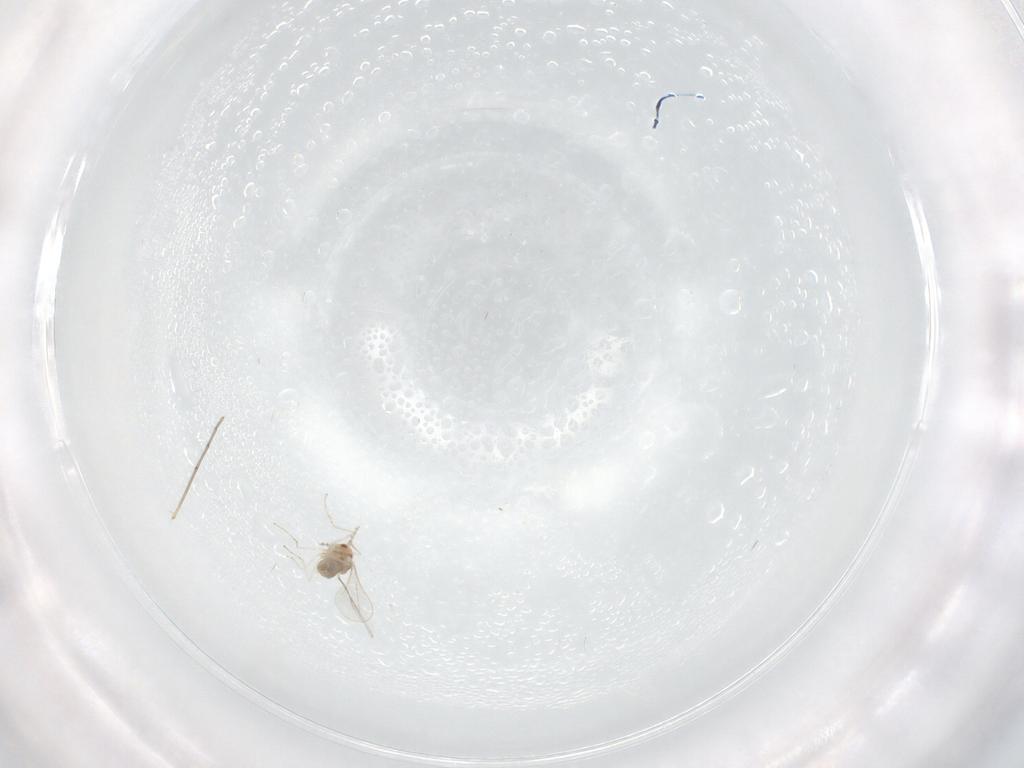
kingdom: Animalia
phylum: Arthropoda
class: Insecta
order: Diptera
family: Cecidomyiidae
